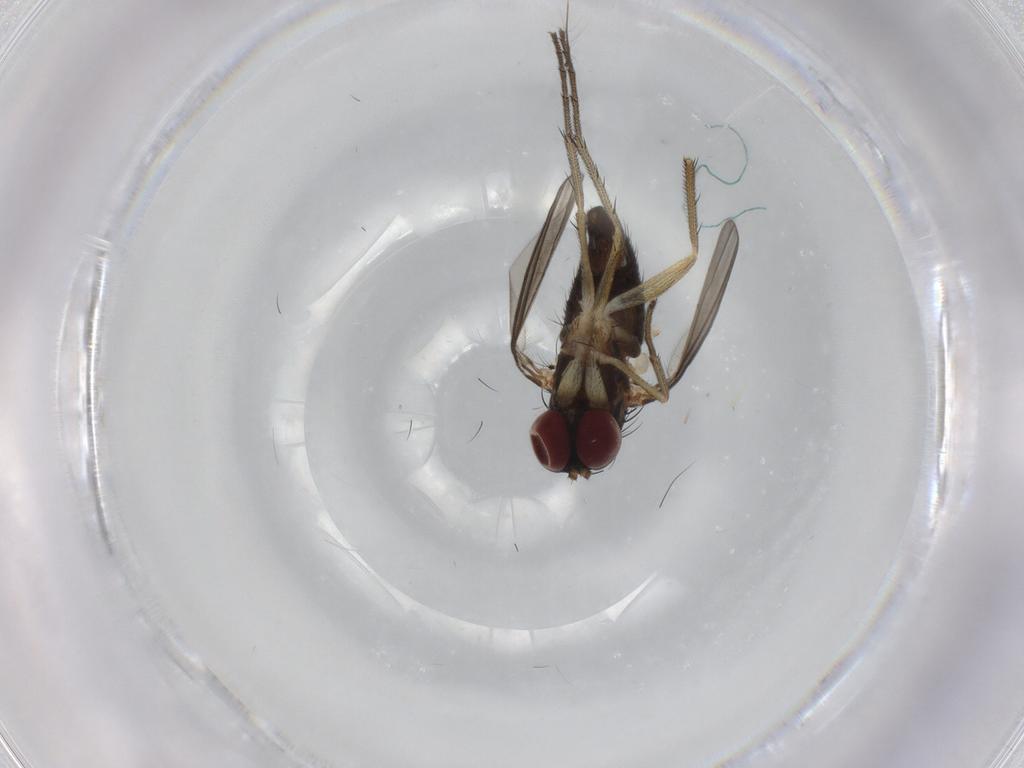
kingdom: Animalia
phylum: Arthropoda
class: Insecta
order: Diptera
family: Dolichopodidae
